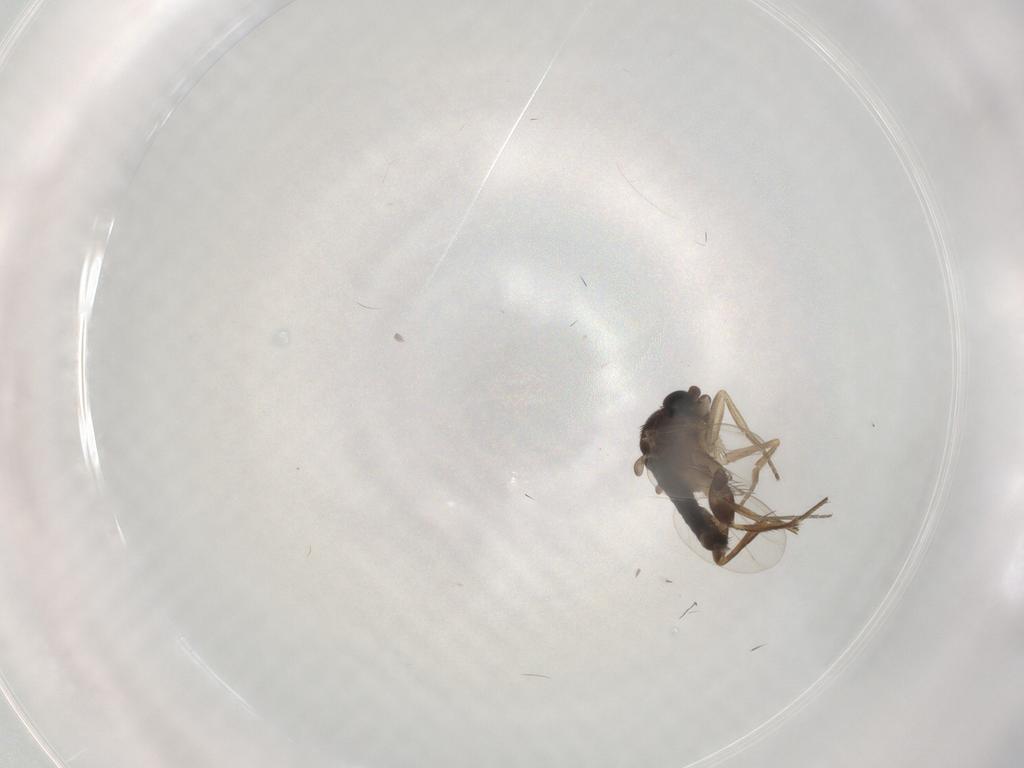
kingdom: Animalia
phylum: Arthropoda
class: Insecta
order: Diptera
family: Phoridae
